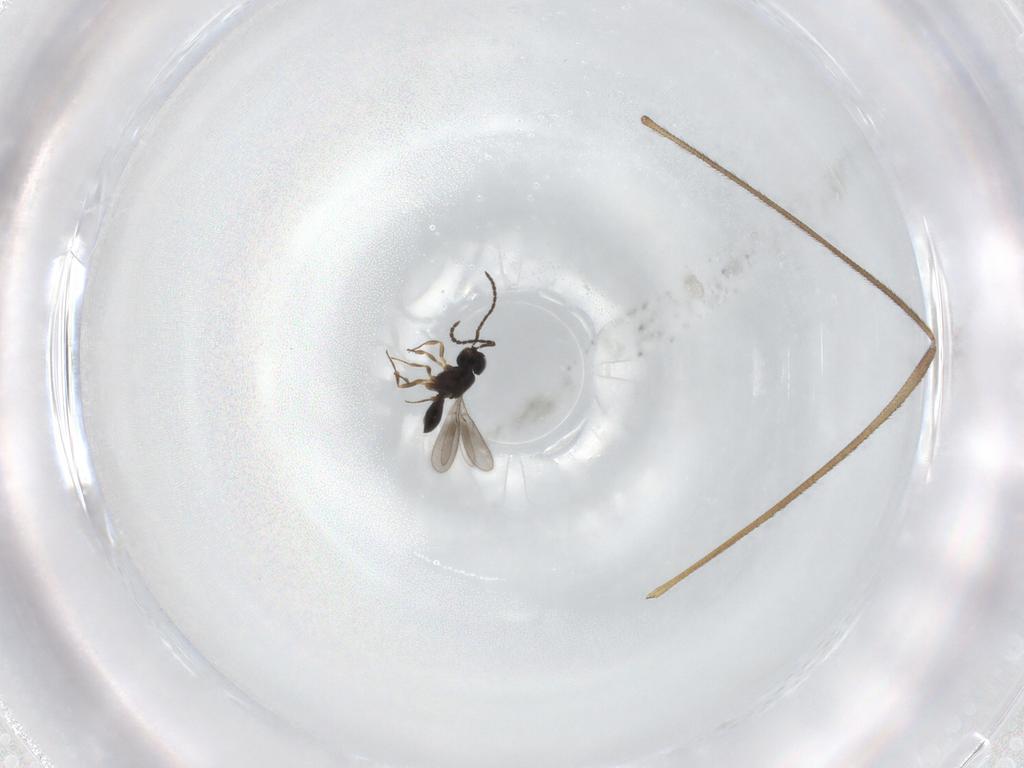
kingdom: Animalia
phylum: Arthropoda
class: Insecta
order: Hymenoptera
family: Scelionidae
